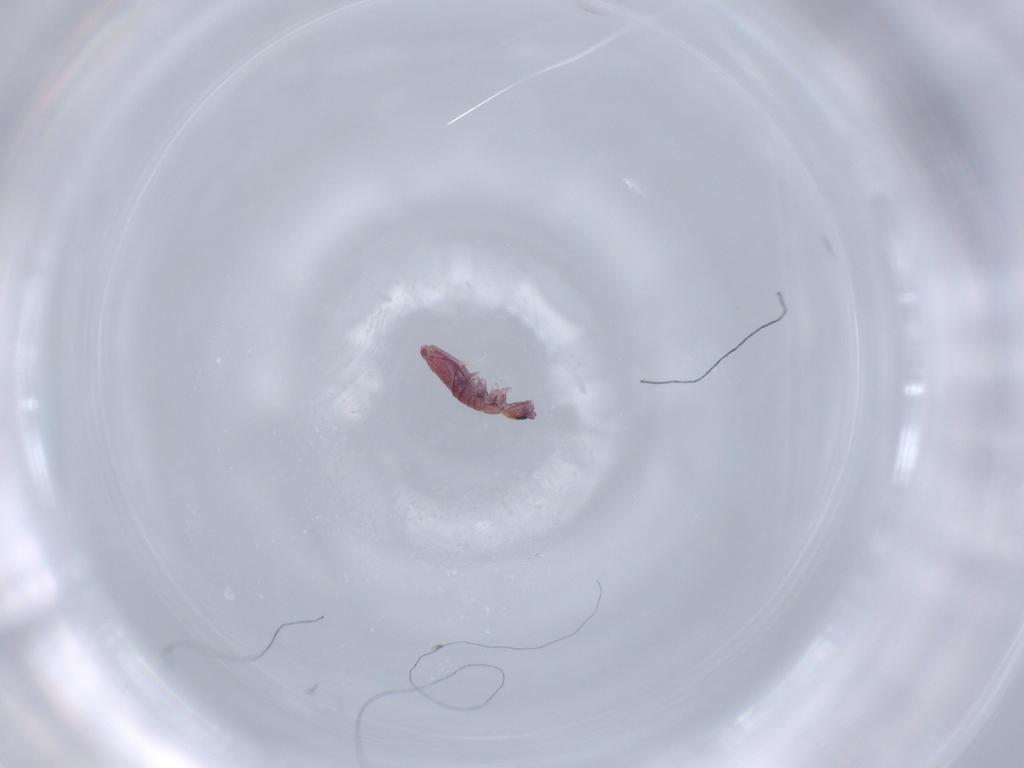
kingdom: Animalia
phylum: Arthropoda
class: Collembola
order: Entomobryomorpha
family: Entomobryidae
